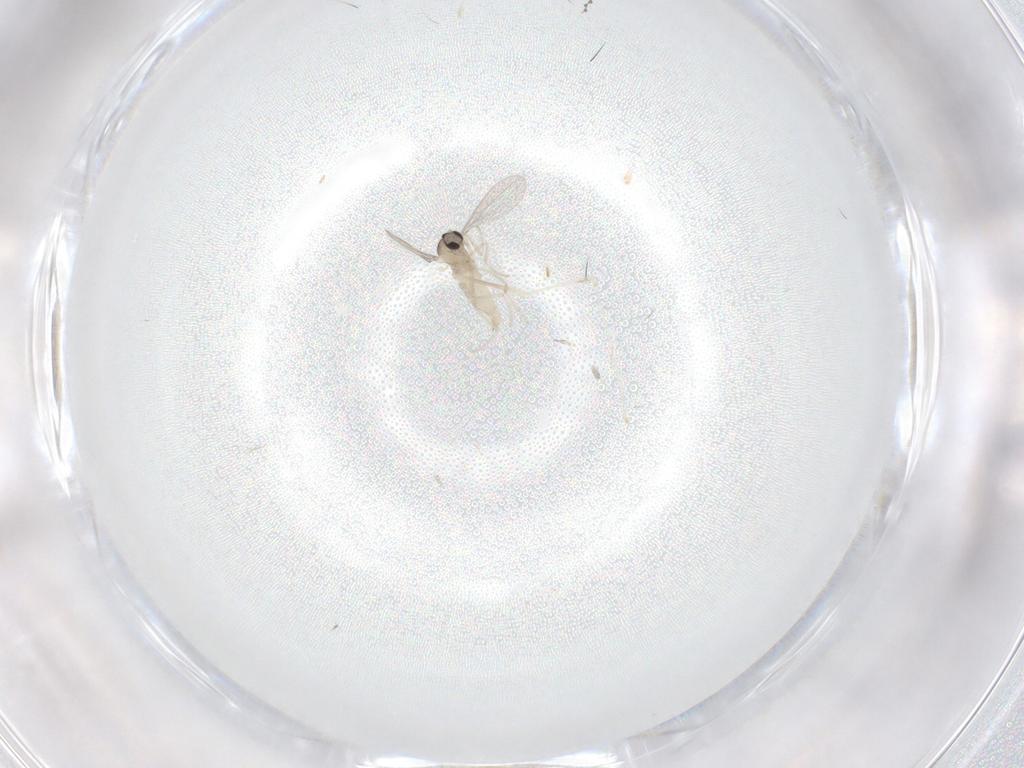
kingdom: Animalia
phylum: Arthropoda
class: Insecta
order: Diptera
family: Cecidomyiidae
